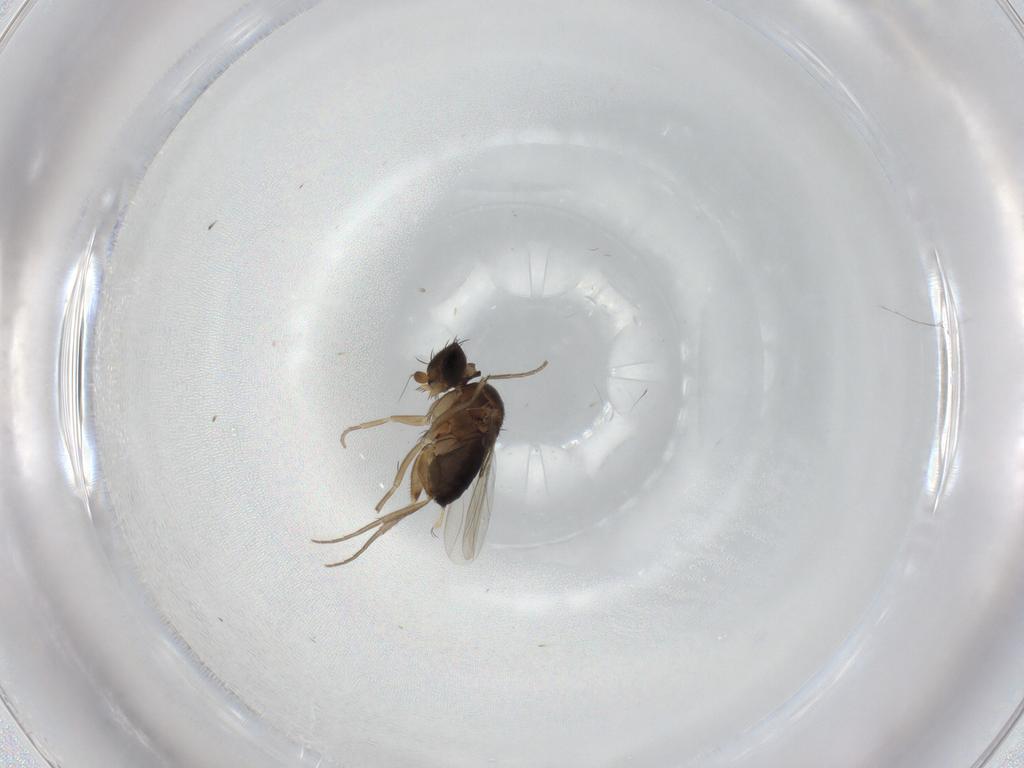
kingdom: Animalia
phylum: Arthropoda
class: Insecta
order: Diptera
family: Phoridae
